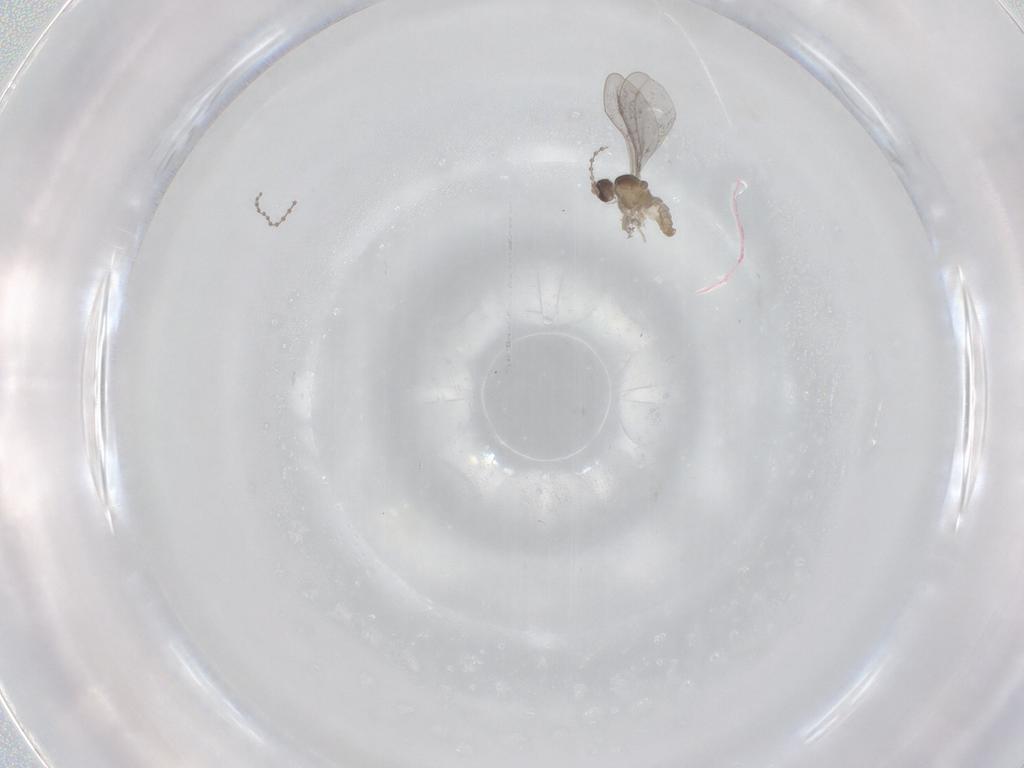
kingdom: Animalia
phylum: Arthropoda
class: Insecta
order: Diptera
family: Cecidomyiidae
